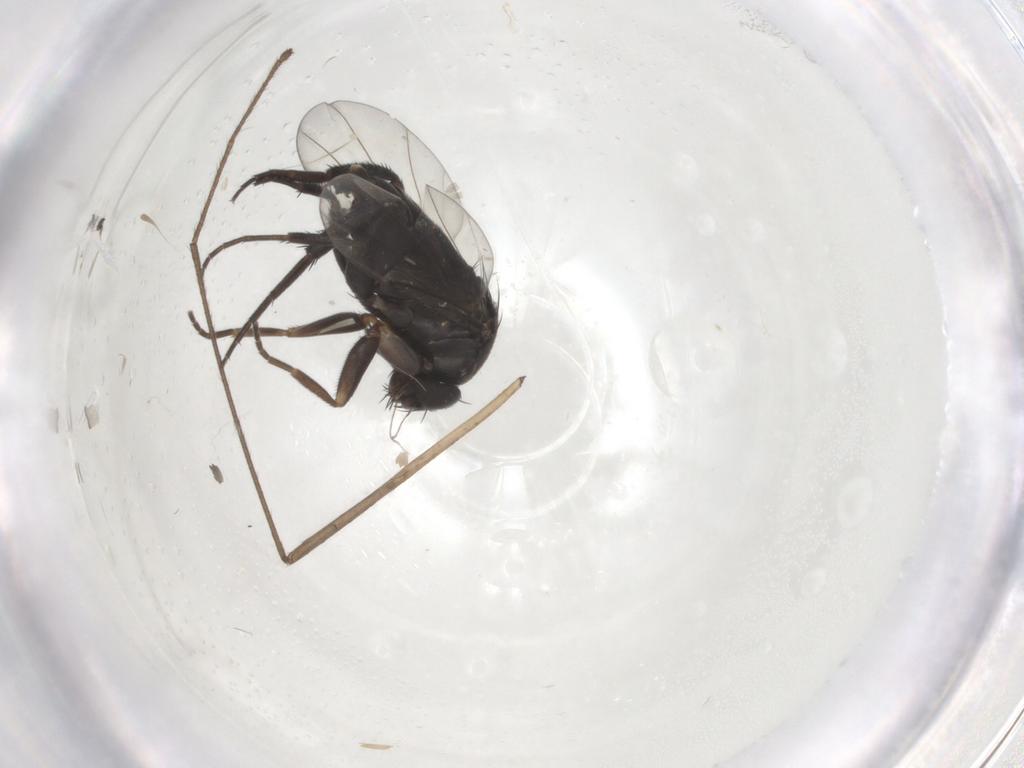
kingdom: Animalia
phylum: Arthropoda
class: Insecta
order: Diptera
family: Phoridae
